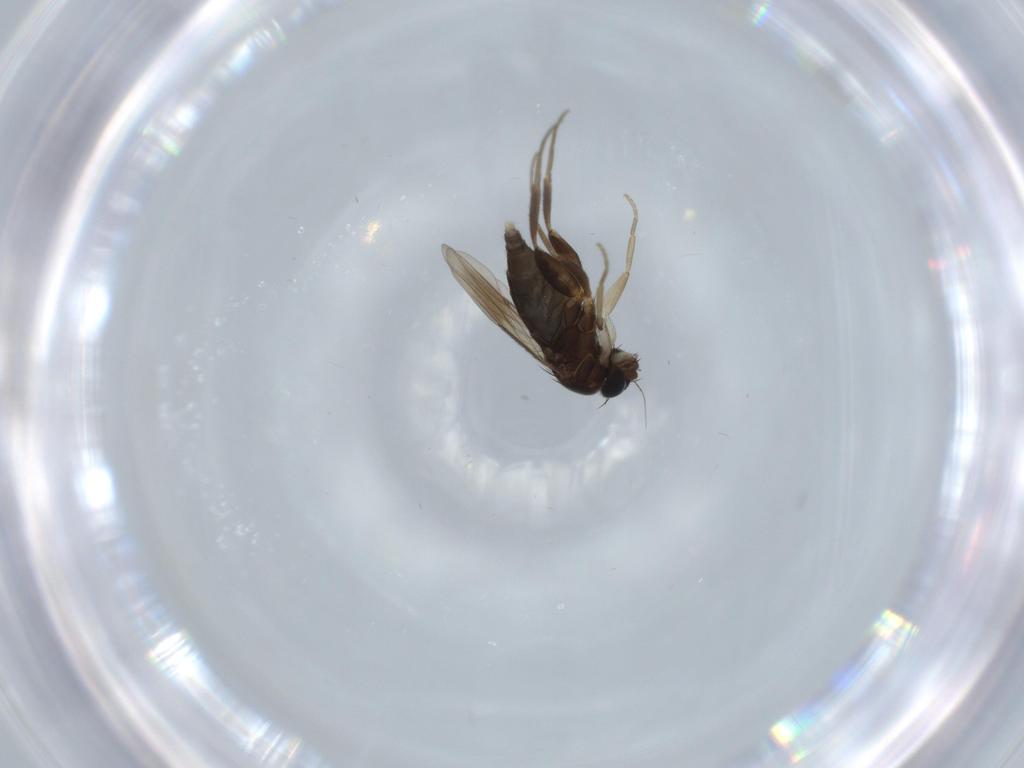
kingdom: Animalia
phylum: Arthropoda
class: Insecta
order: Diptera
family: Phoridae
